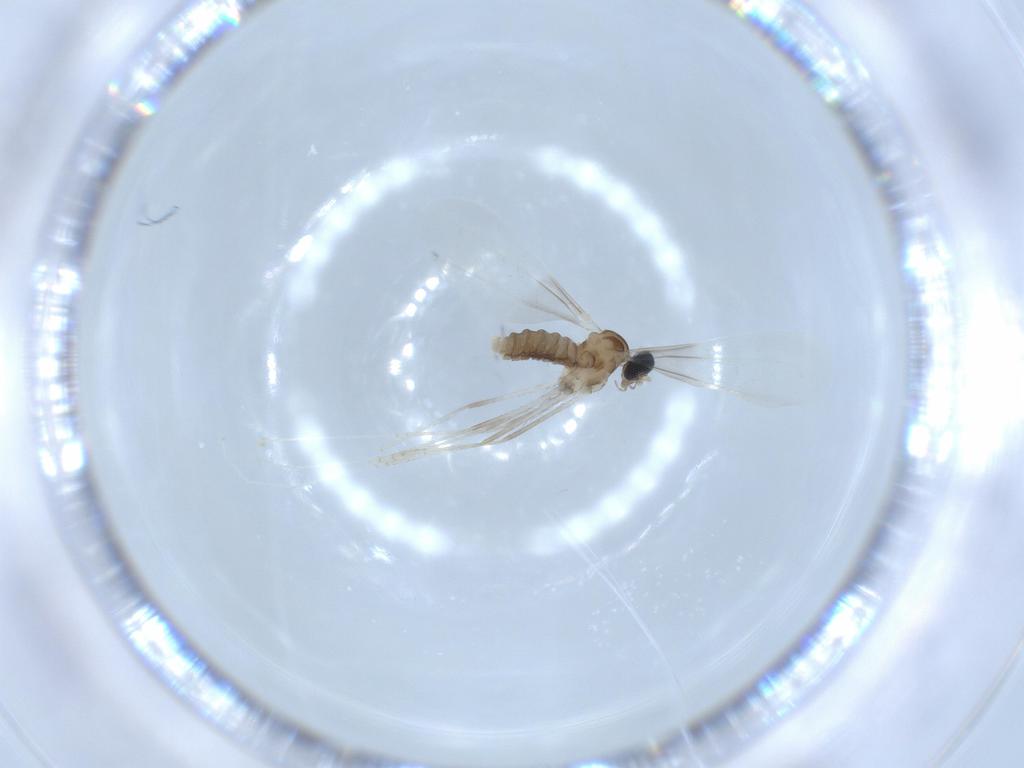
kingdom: Animalia
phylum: Arthropoda
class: Insecta
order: Diptera
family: Cecidomyiidae
